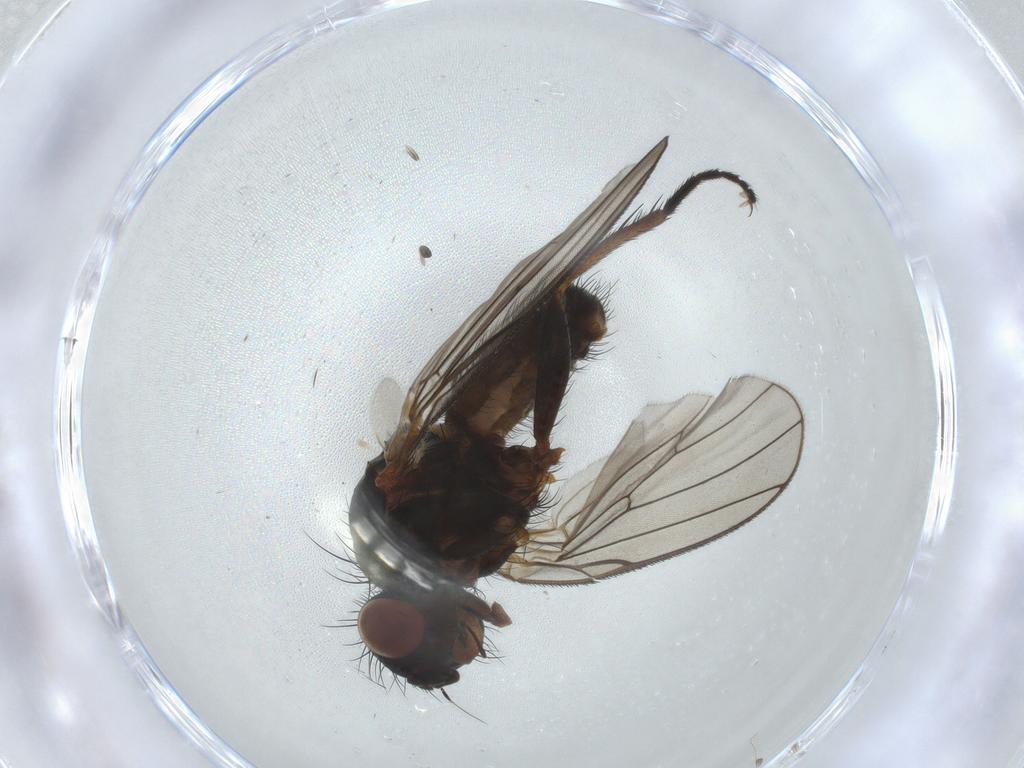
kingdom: Animalia
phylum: Arthropoda
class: Insecta
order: Diptera
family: Anthomyiidae
